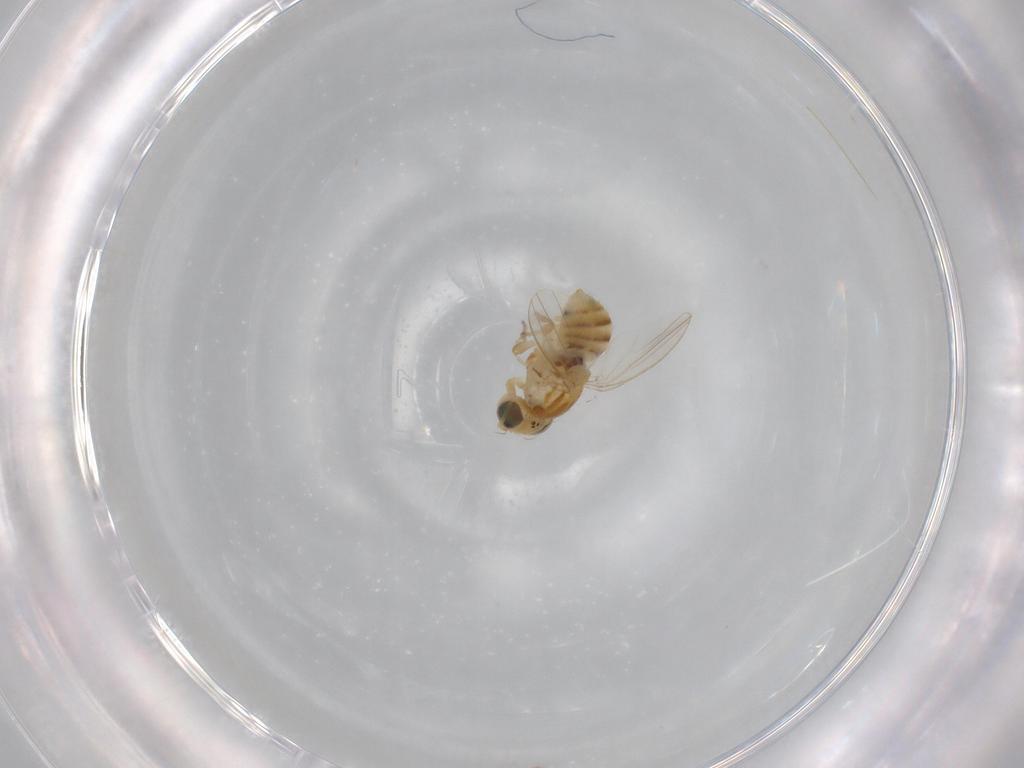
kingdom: Animalia
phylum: Arthropoda
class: Insecta
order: Diptera
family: Chyromyidae
